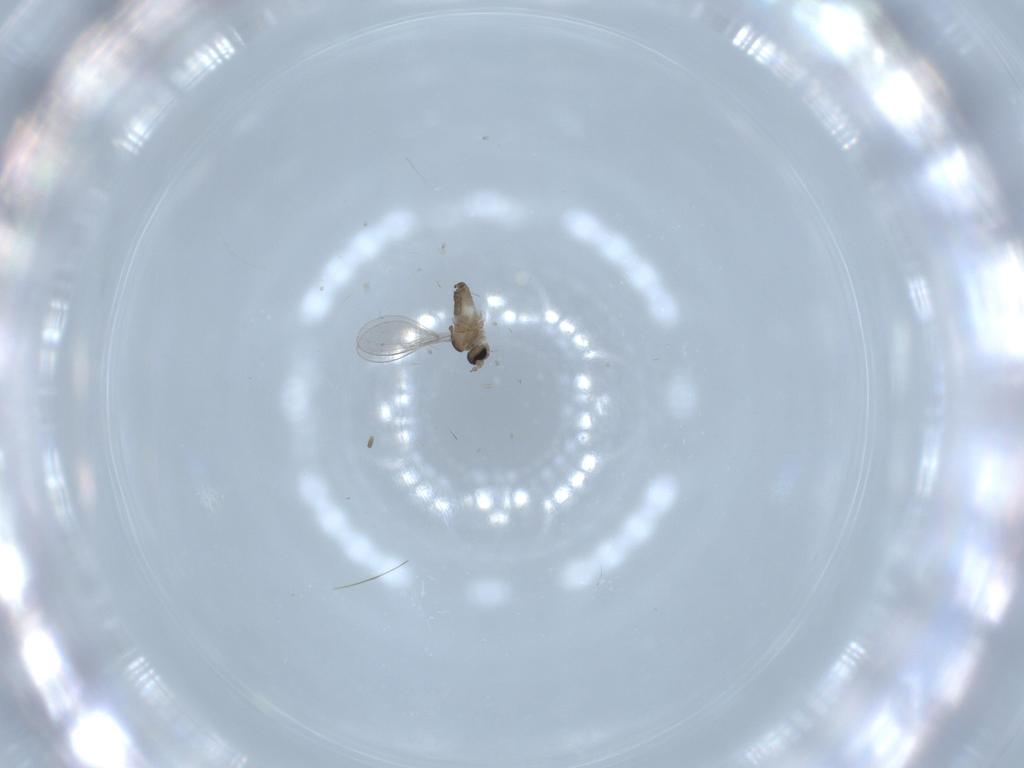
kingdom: Animalia
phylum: Arthropoda
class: Insecta
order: Diptera
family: Cecidomyiidae
